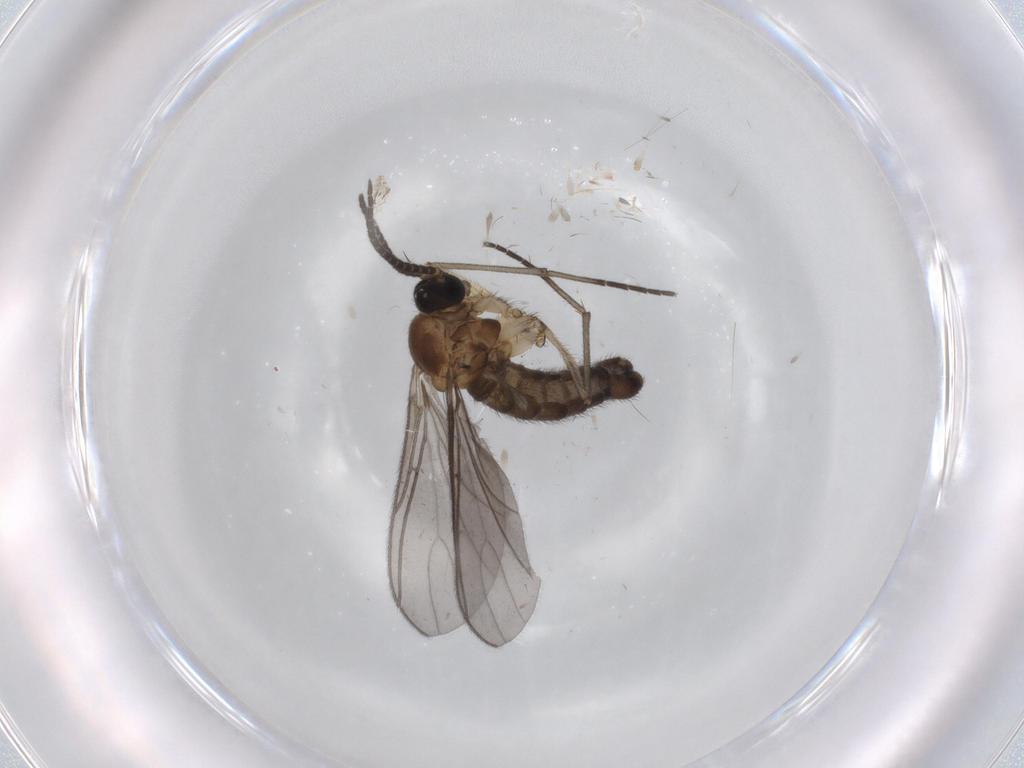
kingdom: Animalia
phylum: Arthropoda
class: Insecta
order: Diptera
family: Sciaridae
